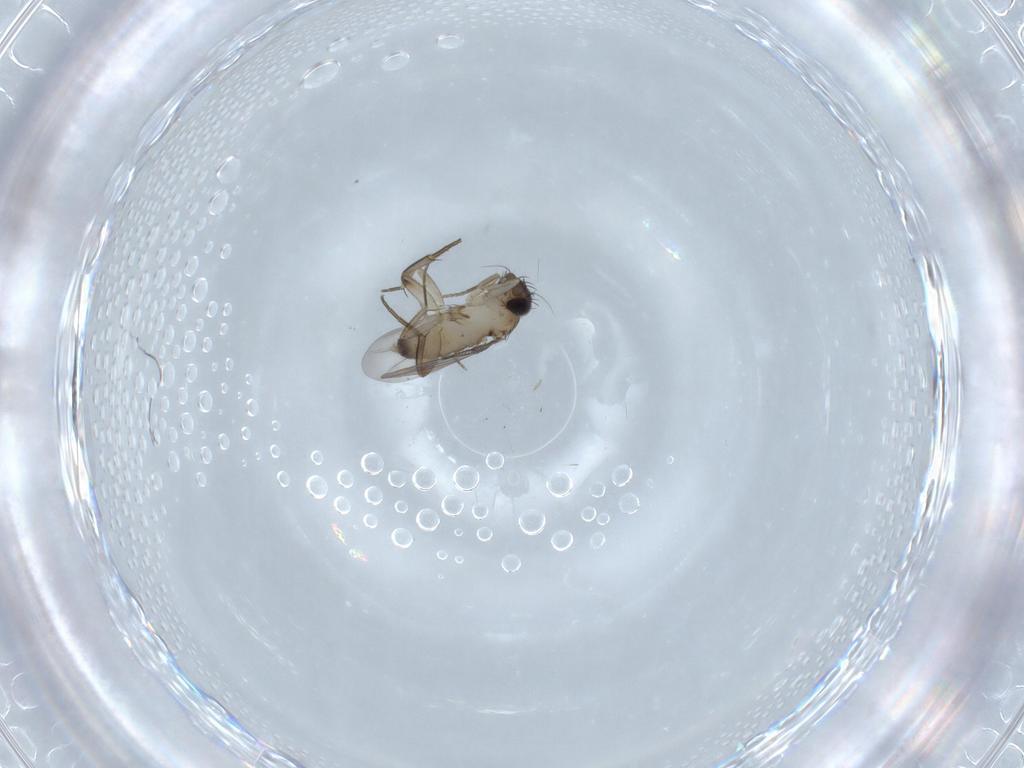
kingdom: Animalia
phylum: Arthropoda
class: Insecta
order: Diptera
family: Phoridae
